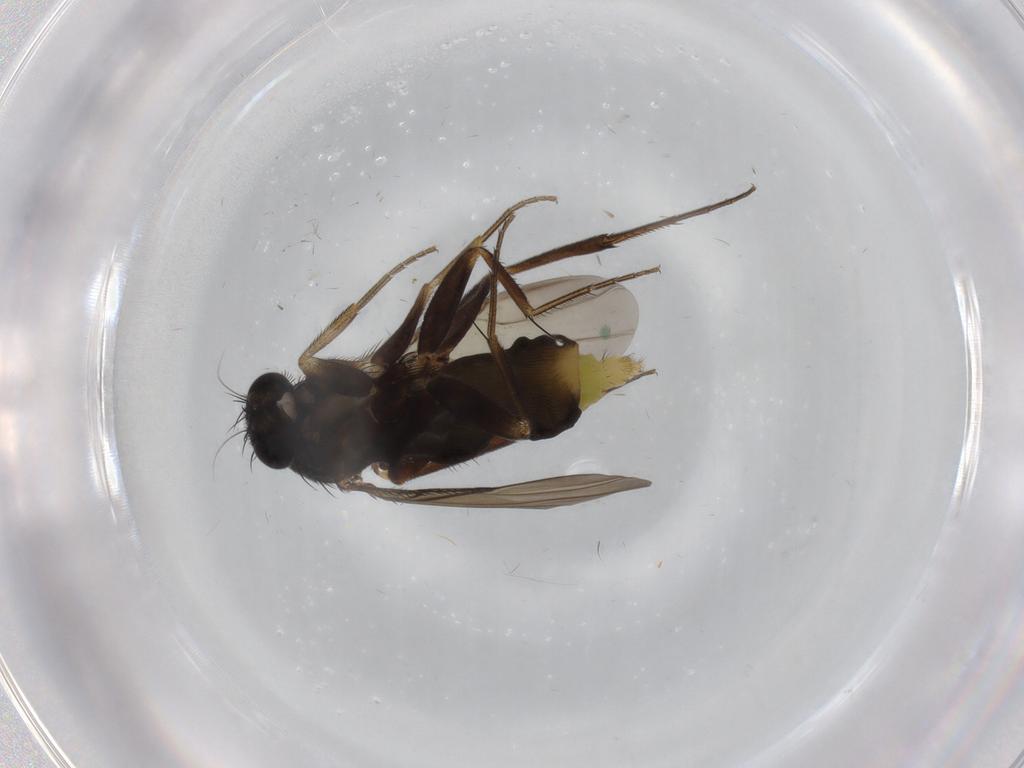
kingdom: Animalia
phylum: Arthropoda
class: Insecta
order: Diptera
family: Phoridae
